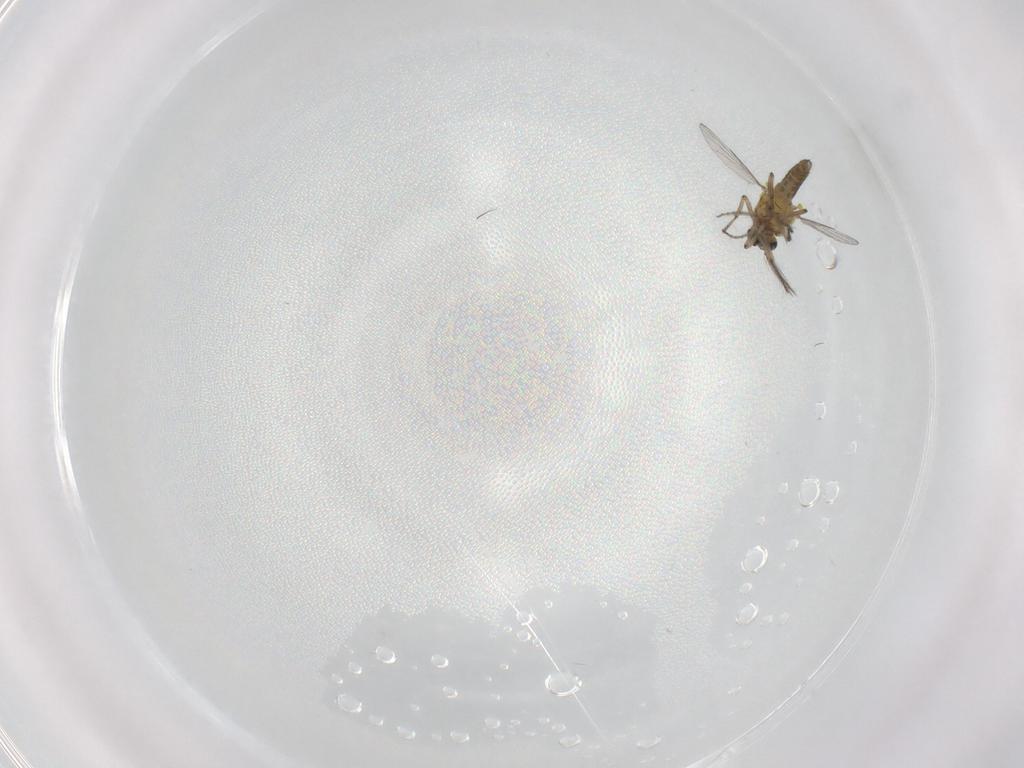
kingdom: Animalia
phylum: Arthropoda
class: Insecta
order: Diptera
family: Ceratopogonidae
